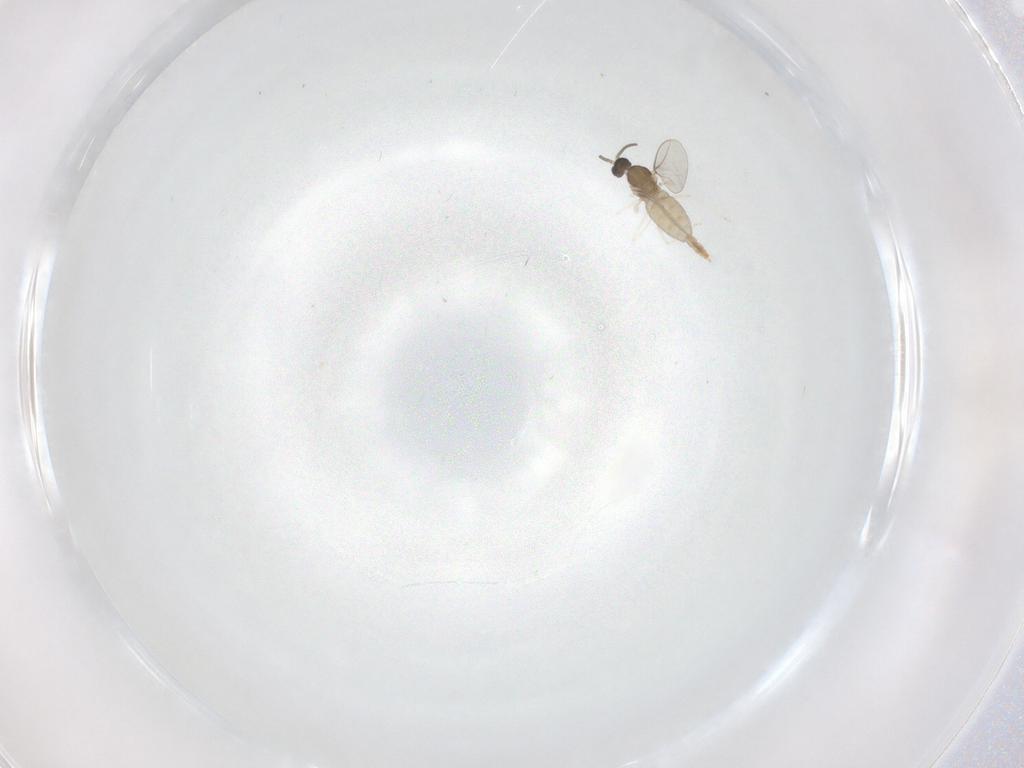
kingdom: Animalia
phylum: Arthropoda
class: Insecta
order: Diptera
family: Cecidomyiidae
